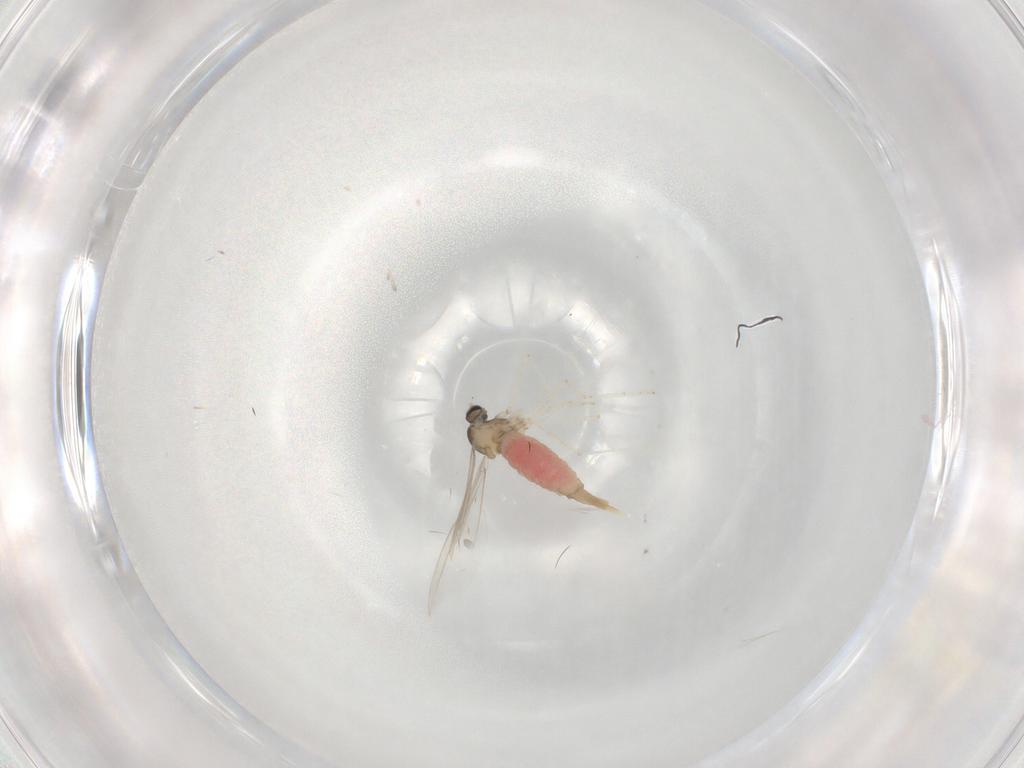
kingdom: Animalia
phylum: Arthropoda
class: Insecta
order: Diptera
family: Cecidomyiidae
